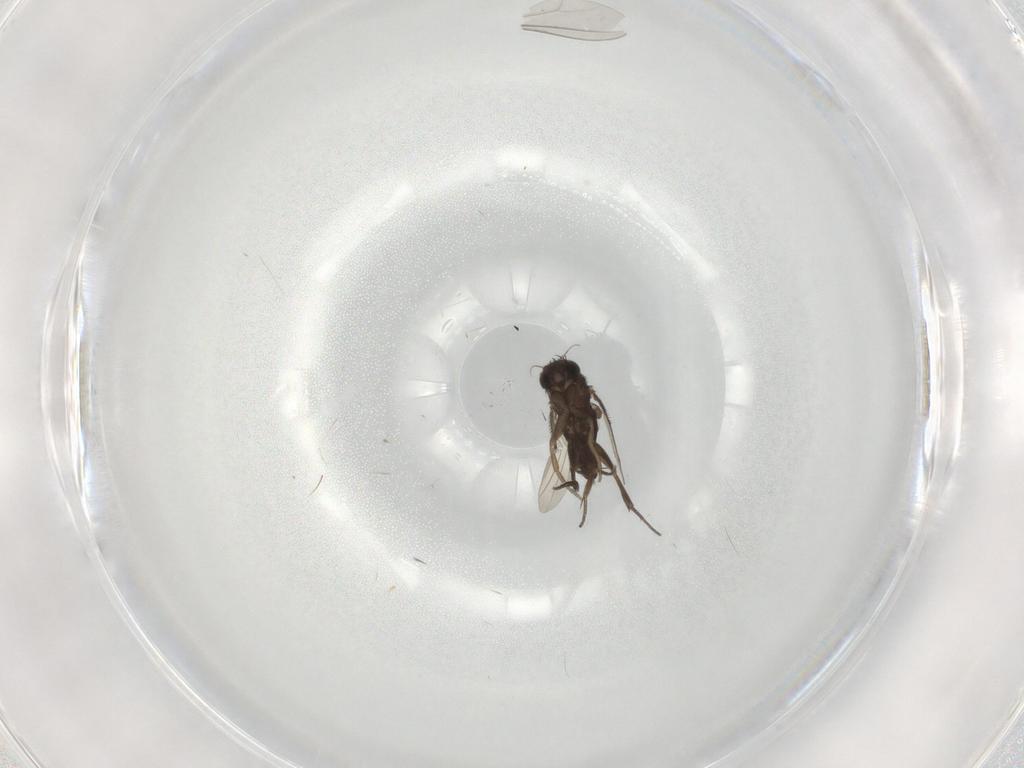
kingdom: Animalia
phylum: Arthropoda
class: Insecta
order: Diptera
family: Phoridae
